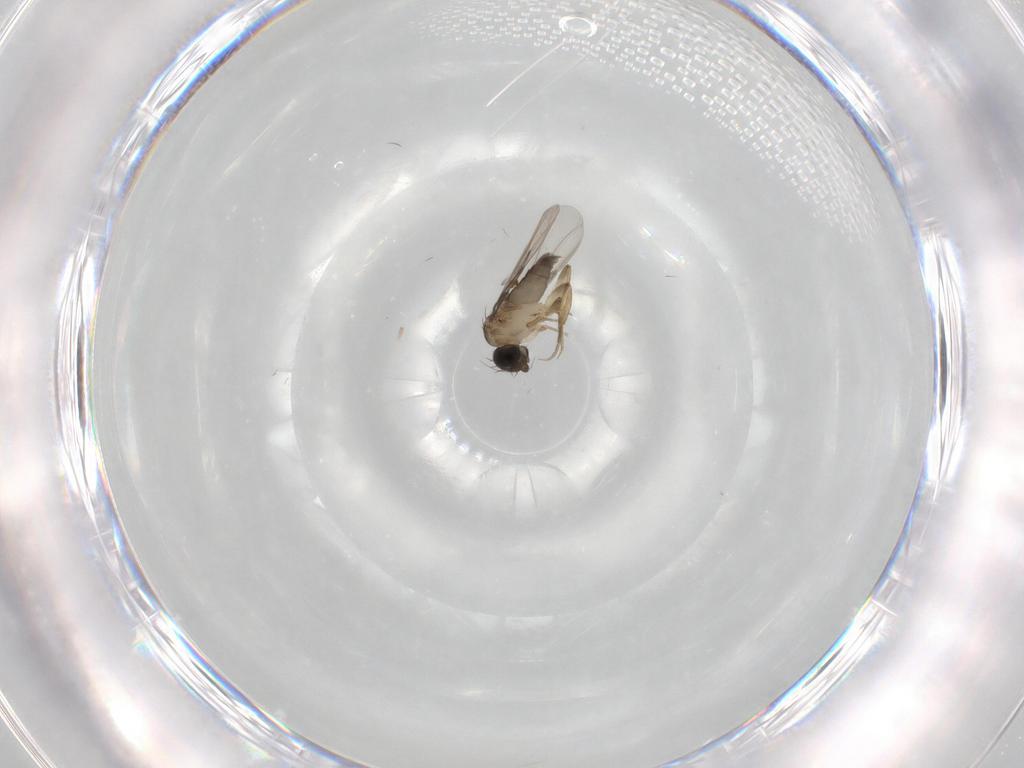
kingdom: Animalia
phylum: Arthropoda
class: Insecta
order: Diptera
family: Phoridae
